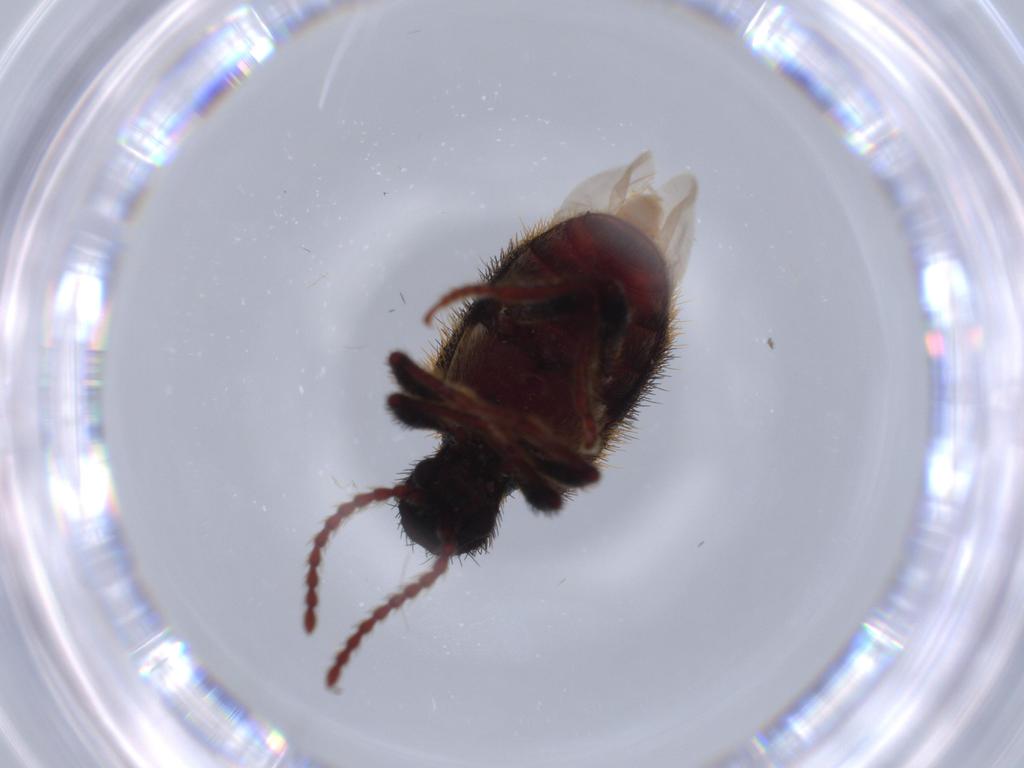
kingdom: Animalia
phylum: Arthropoda
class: Insecta
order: Coleoptera
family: Ptinidae
